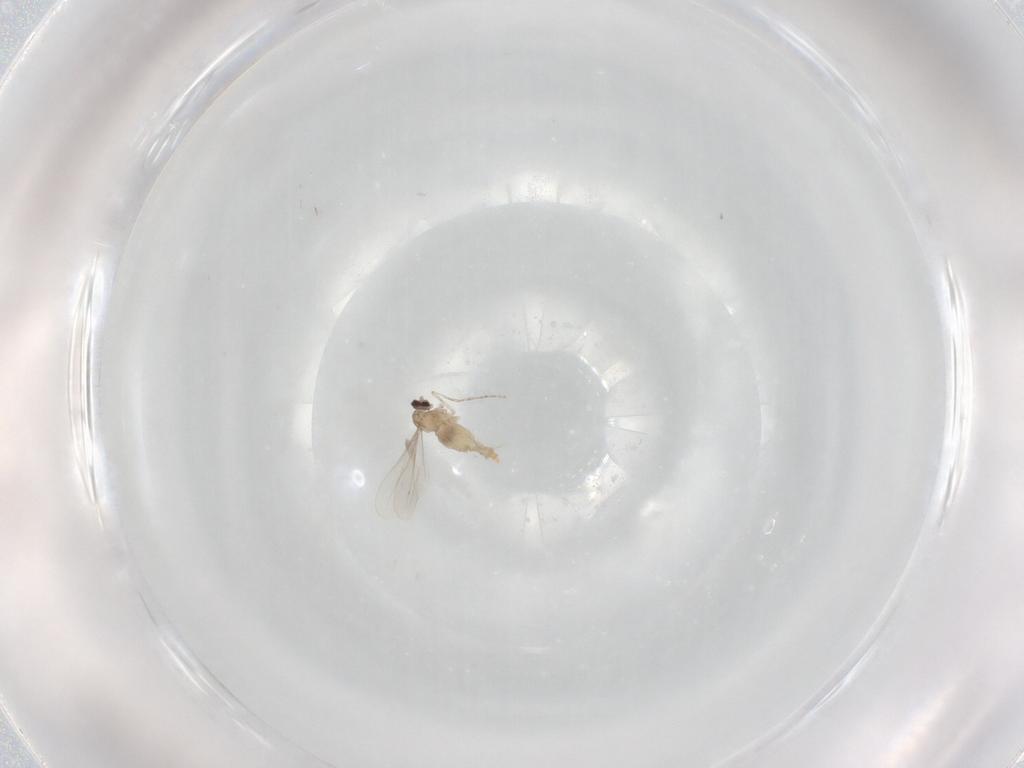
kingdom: Animalia
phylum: Arthropoda
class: Insecta
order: Diptera
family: Cecidomyiidae
